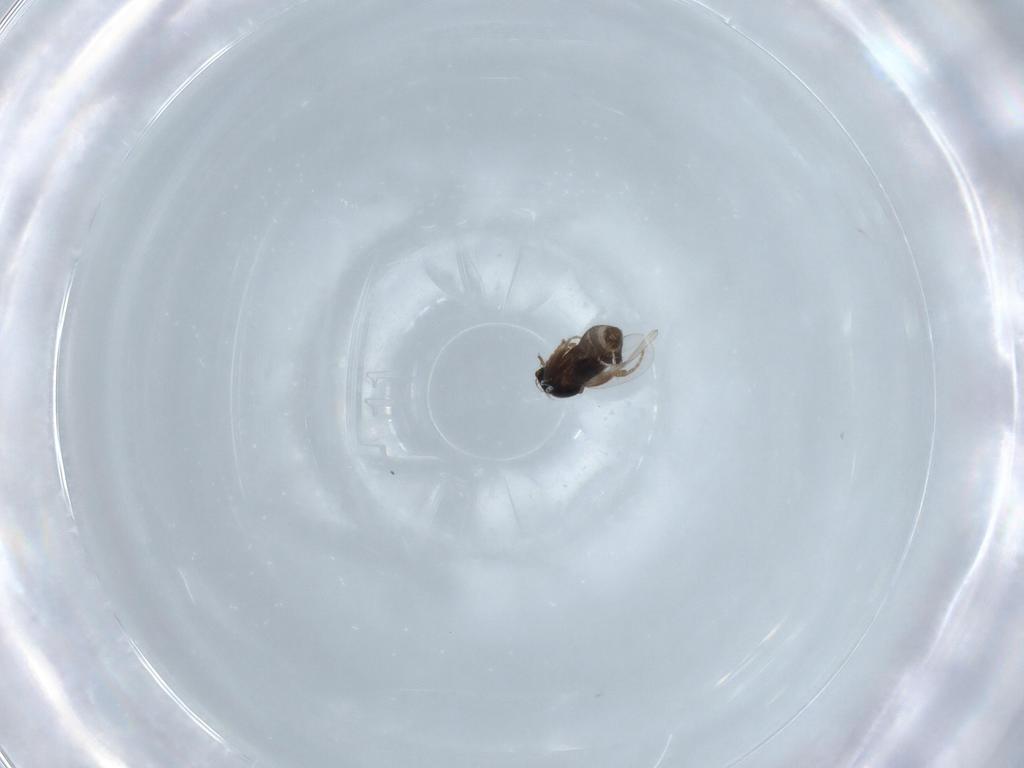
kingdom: Animalia
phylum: Arthropoda
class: Insecta
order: Diptera
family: Phoridae
